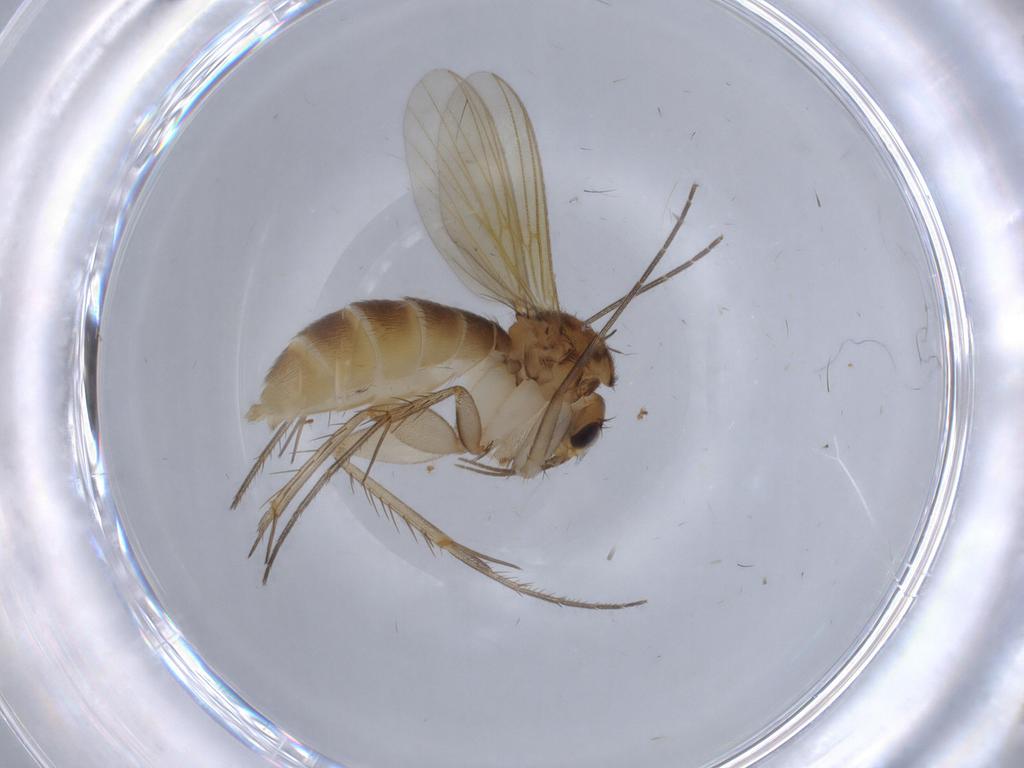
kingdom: Animalia
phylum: Arthropoda
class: Insecta
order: Diptera
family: Mycetophilidae
